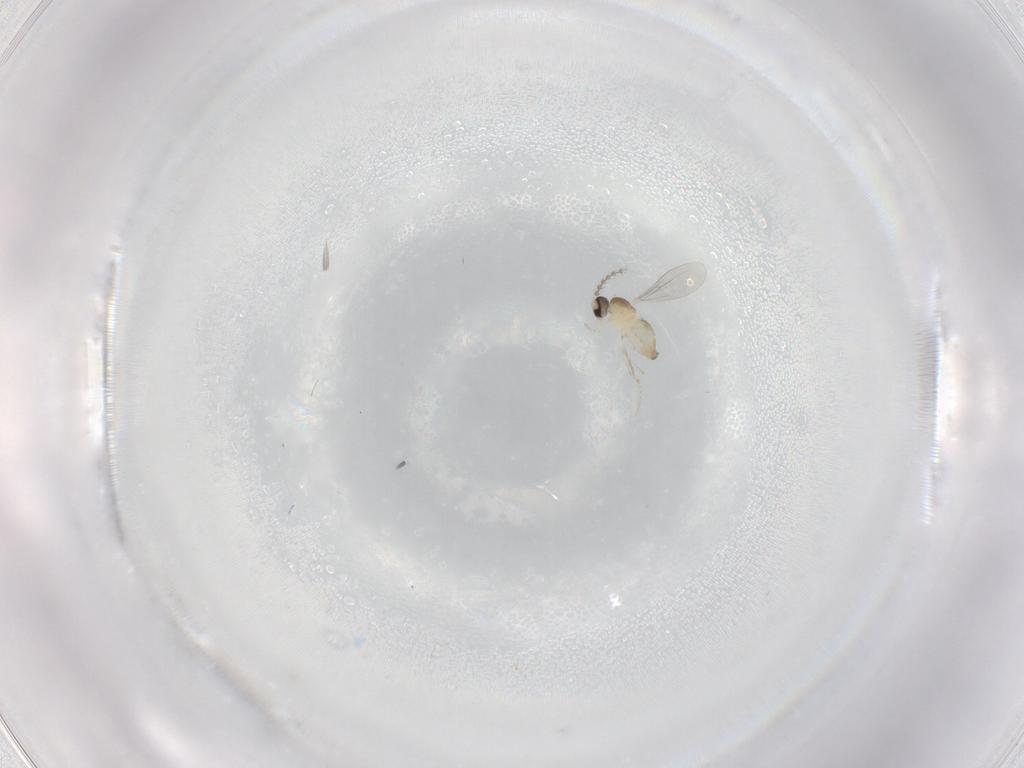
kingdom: Animalia
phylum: Arthropoda
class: Insecta
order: Diptera
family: Cecidomyiidae
